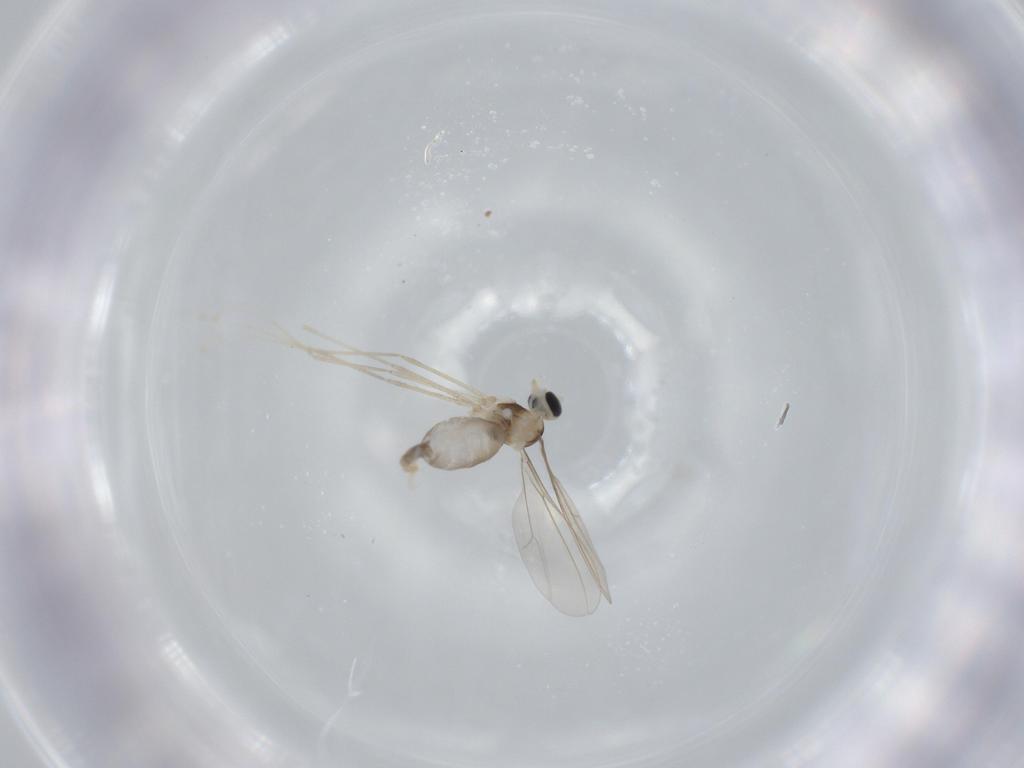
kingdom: Animalia
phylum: Arthropoda
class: Insecta
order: Diptera
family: Cecidomyiidae
